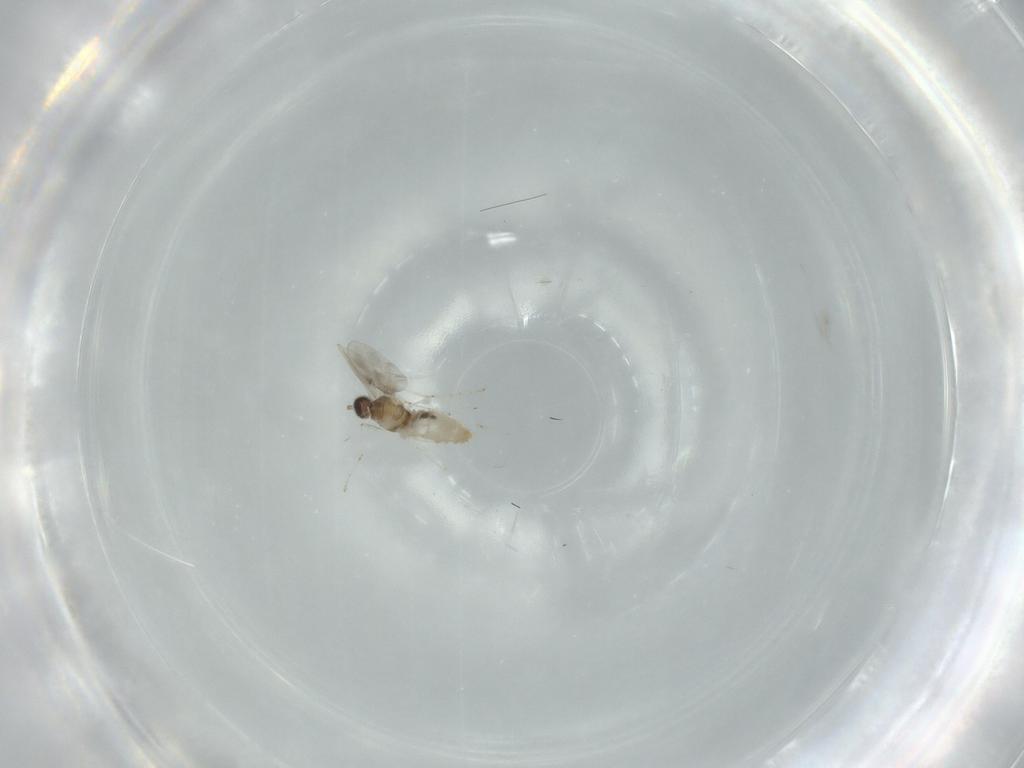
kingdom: Animalia
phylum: Arthropoda
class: Insecta
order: Diptera
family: Cecidomyiidae
